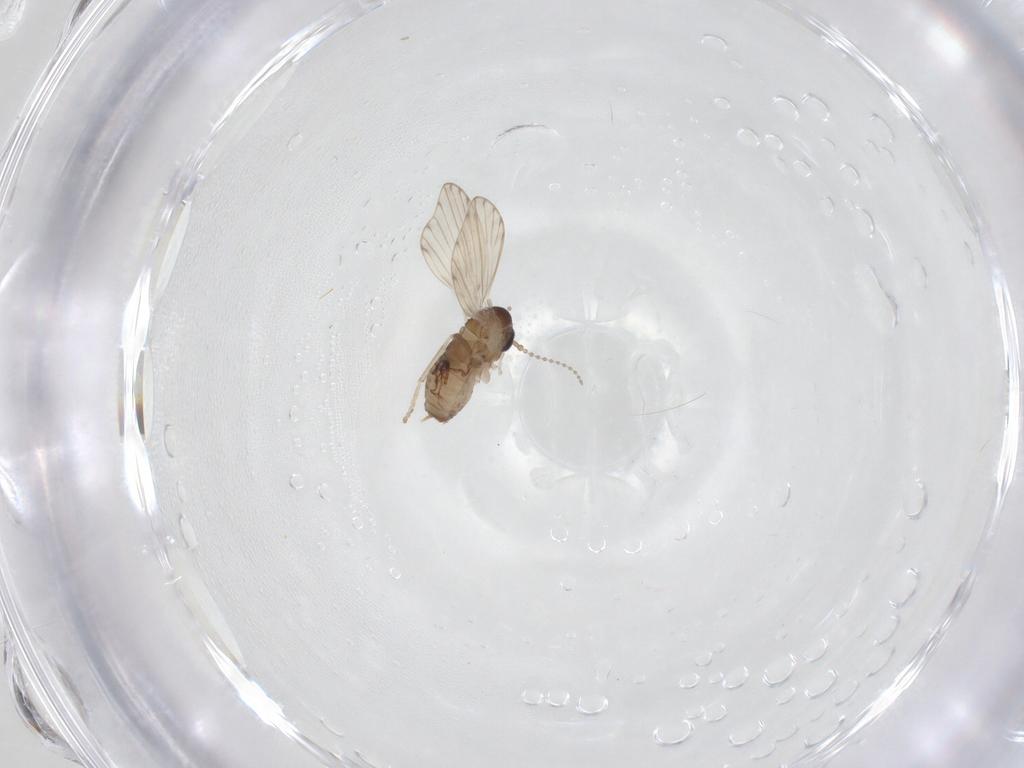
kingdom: Animalia
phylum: Arthropoda
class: Insecta
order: Diptera
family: Psychodidae
